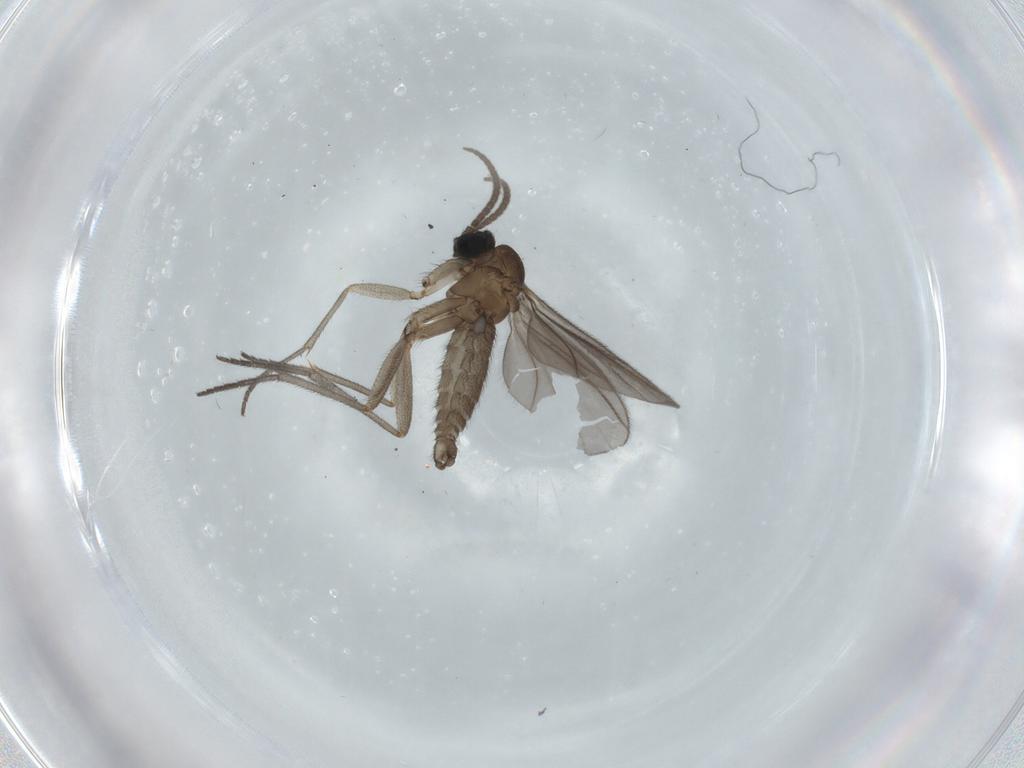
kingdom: Animalia
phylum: Arthropoda
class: Insecta
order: Diptera
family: Sciaridae
